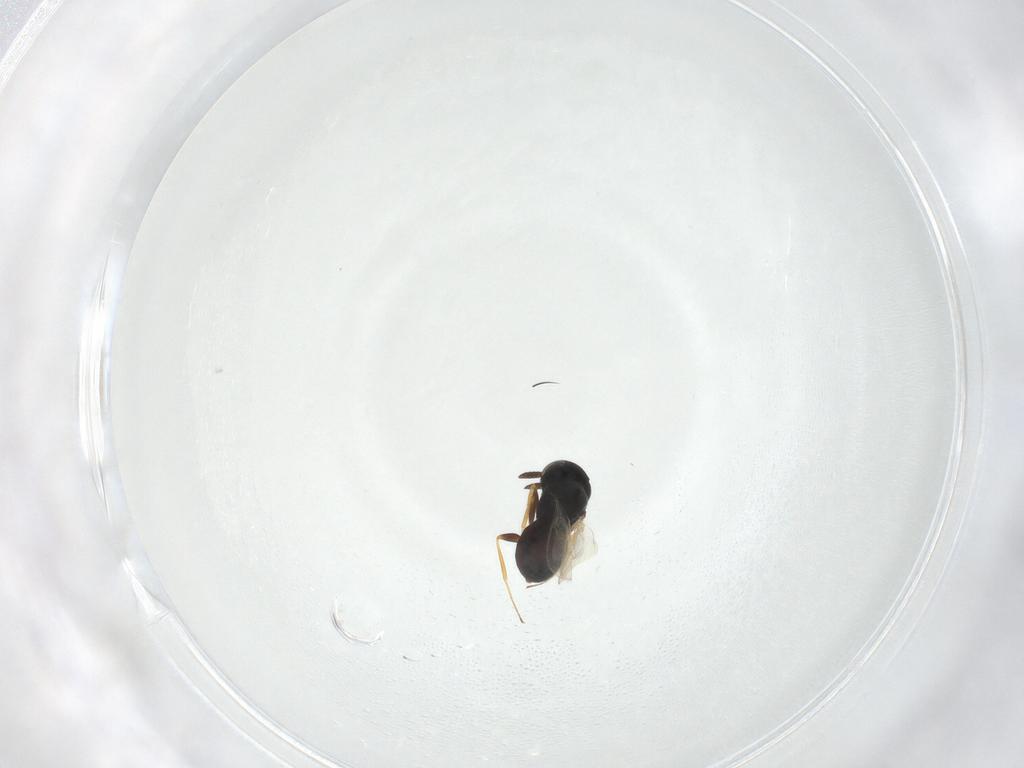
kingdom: Animalia
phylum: Arthropoda
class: Insecta
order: Hymenoptera
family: Scelionidae
